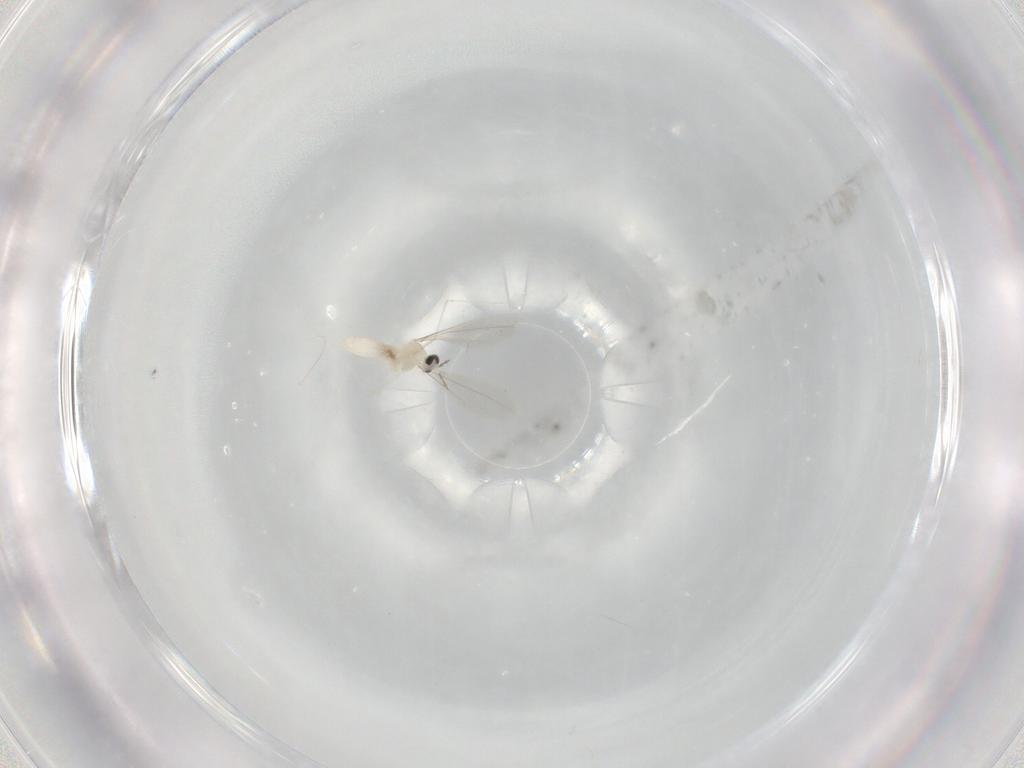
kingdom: Animalia
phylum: Arthropoda
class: Insecta
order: Diptera
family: Cecidomyiidae
